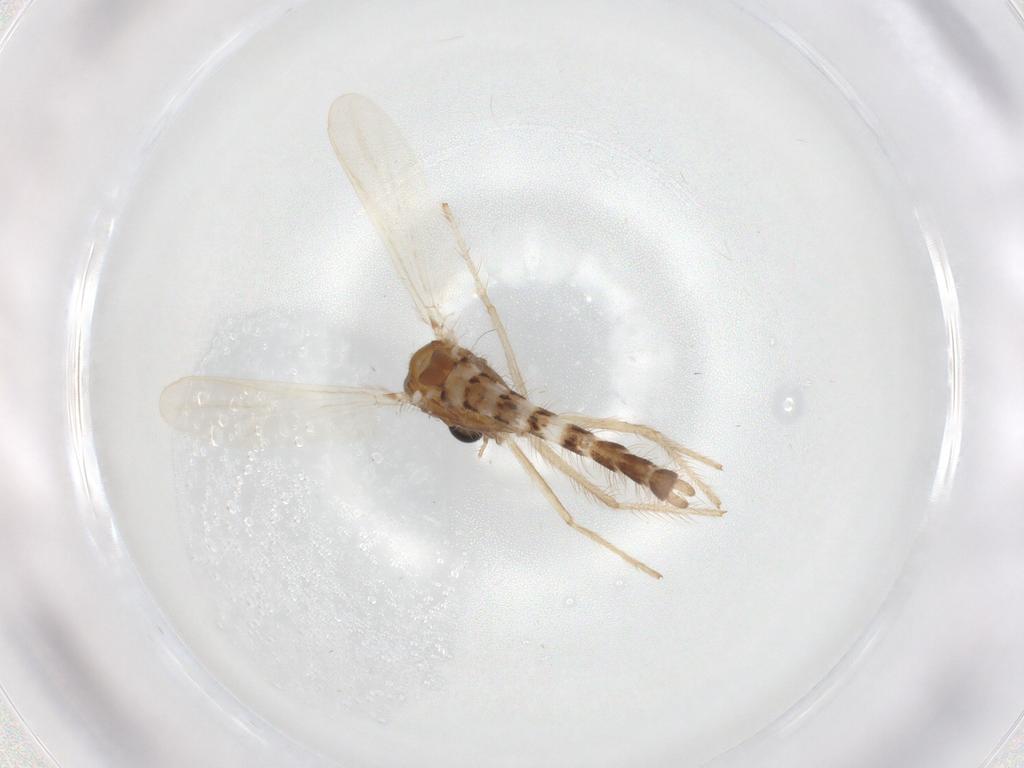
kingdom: Animalia
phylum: Arthropoda
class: Insecta
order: Diptera
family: Chironomidae
